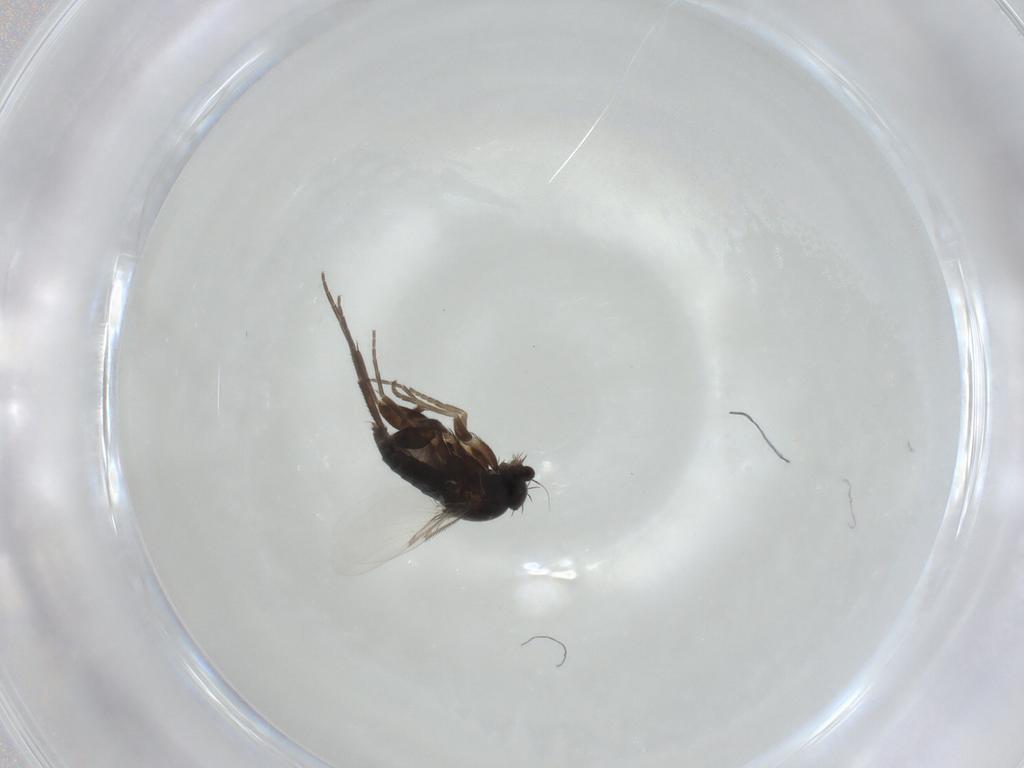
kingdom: Animalia
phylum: Arthropoda
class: Insecta
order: Diptera
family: Phoridae
